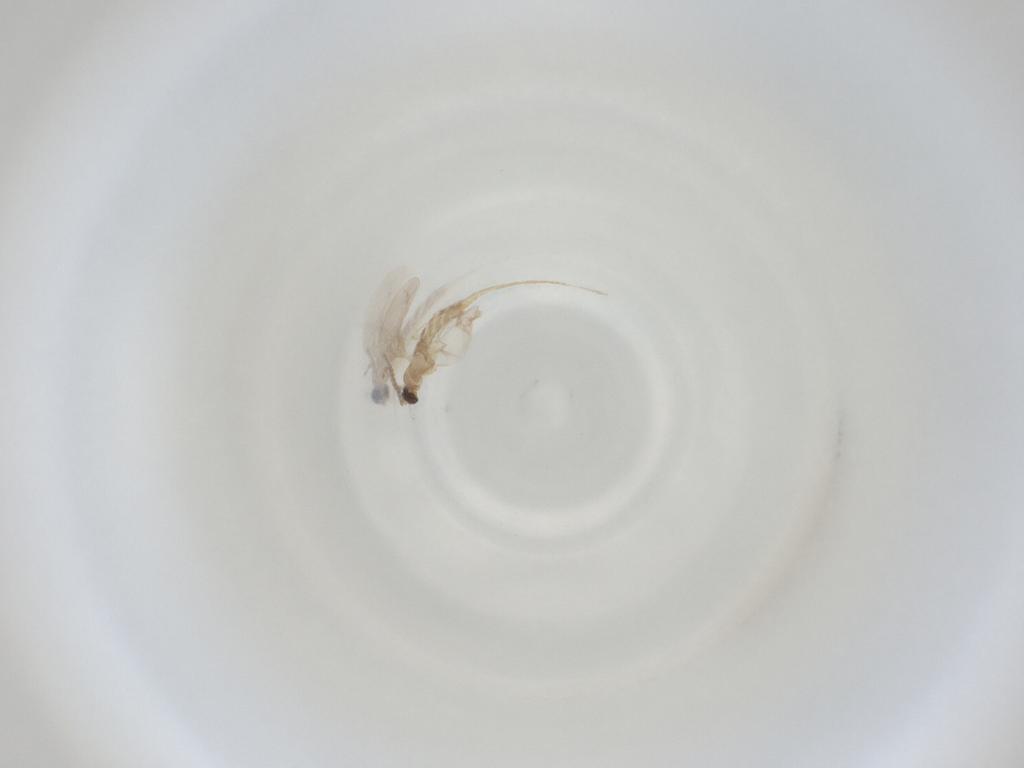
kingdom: Animalia
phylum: Arthropoda
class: Insecta
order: Diptera
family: Cecidomyiidae
